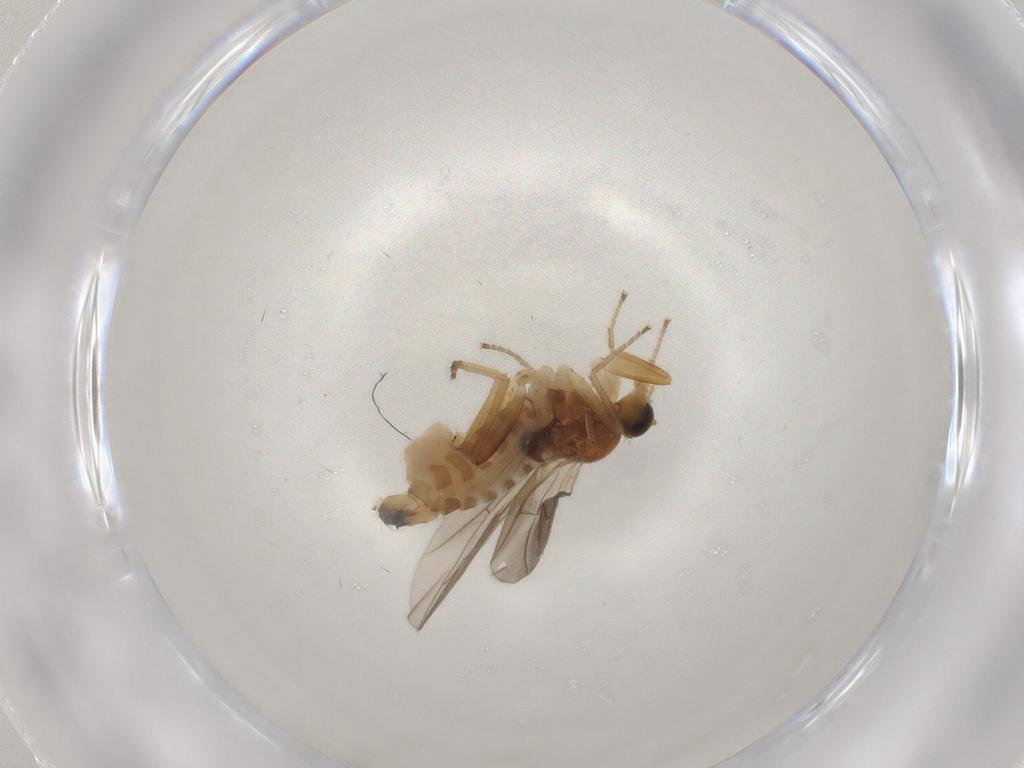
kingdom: Animalia
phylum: Arthropoda
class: Insecta
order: Diptera
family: Hybotidae
